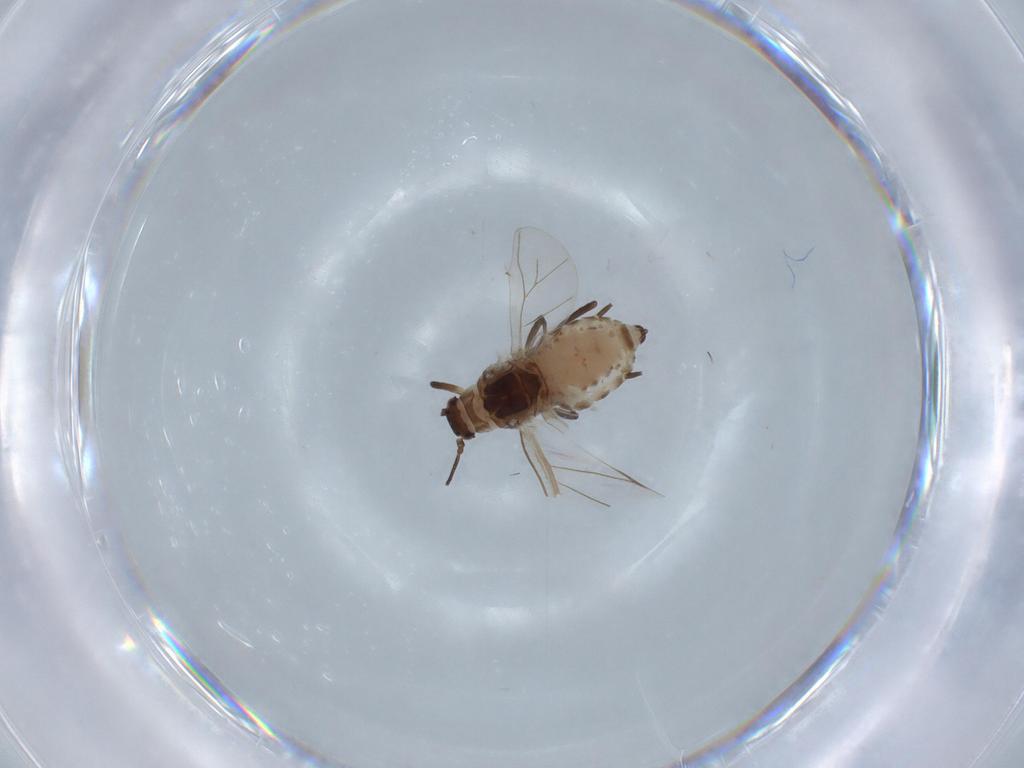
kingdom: Animalia
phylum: Arthropoda
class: Insecta
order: Hemiptera
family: Aphididae
